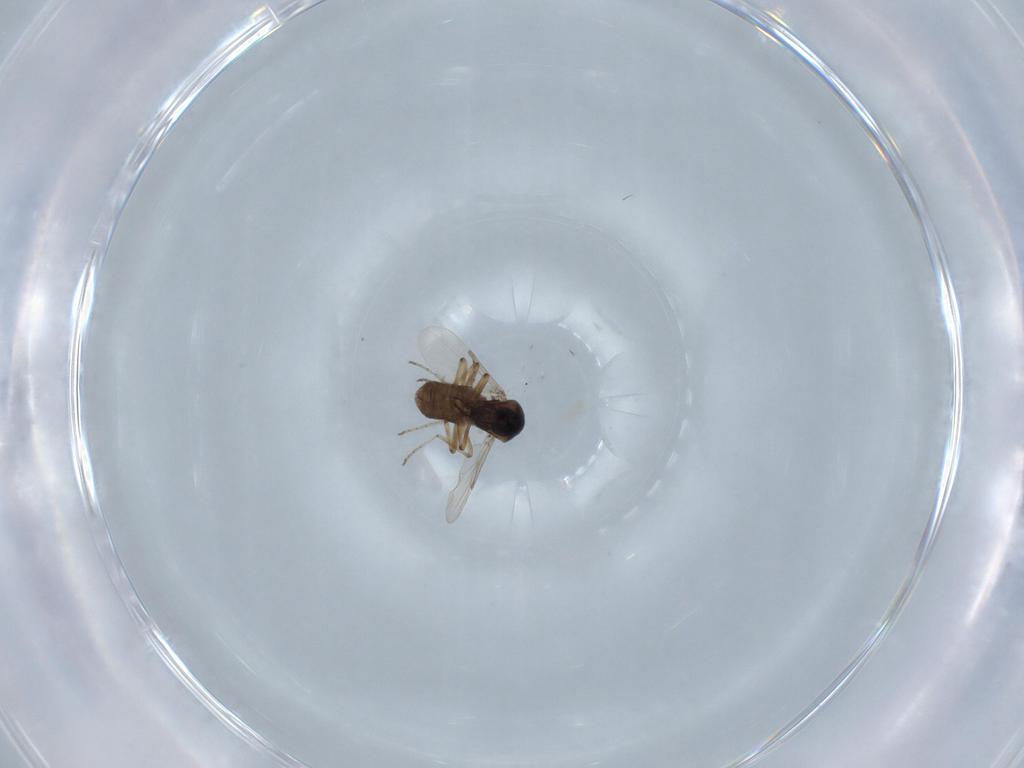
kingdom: Animalia
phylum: Arthropoda
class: Insecta
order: Diptera
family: Ceratopogonidae
